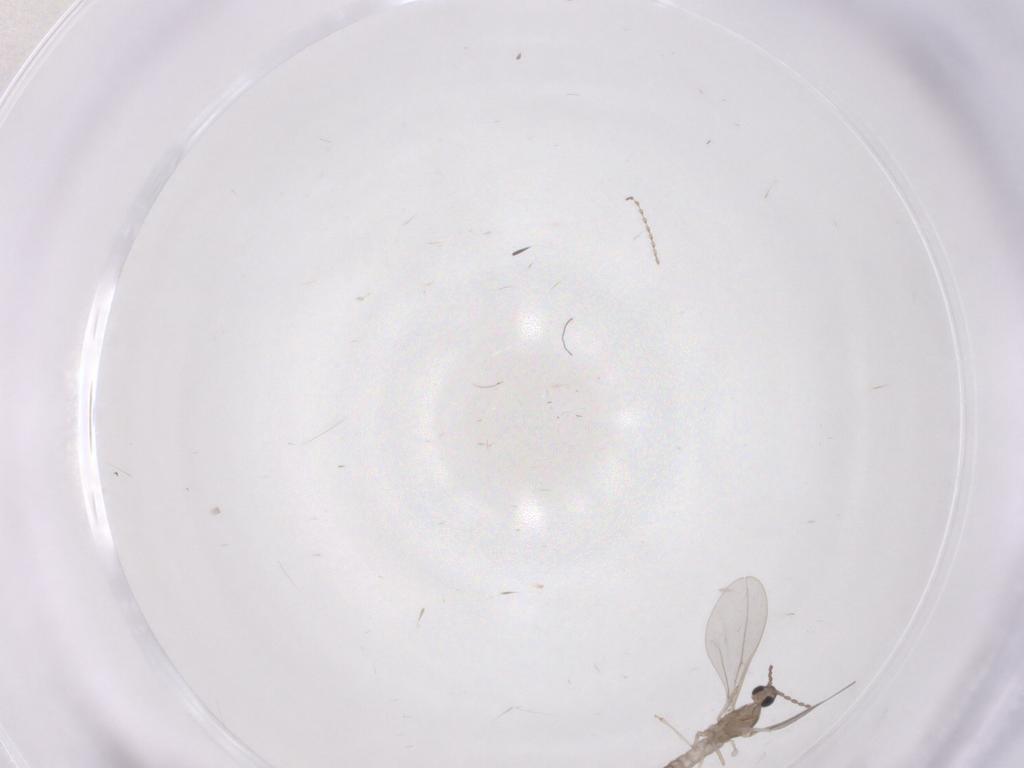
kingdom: Animalia
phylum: Arthropoda
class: Insecta
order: Diptera
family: Cecidomyiidae
